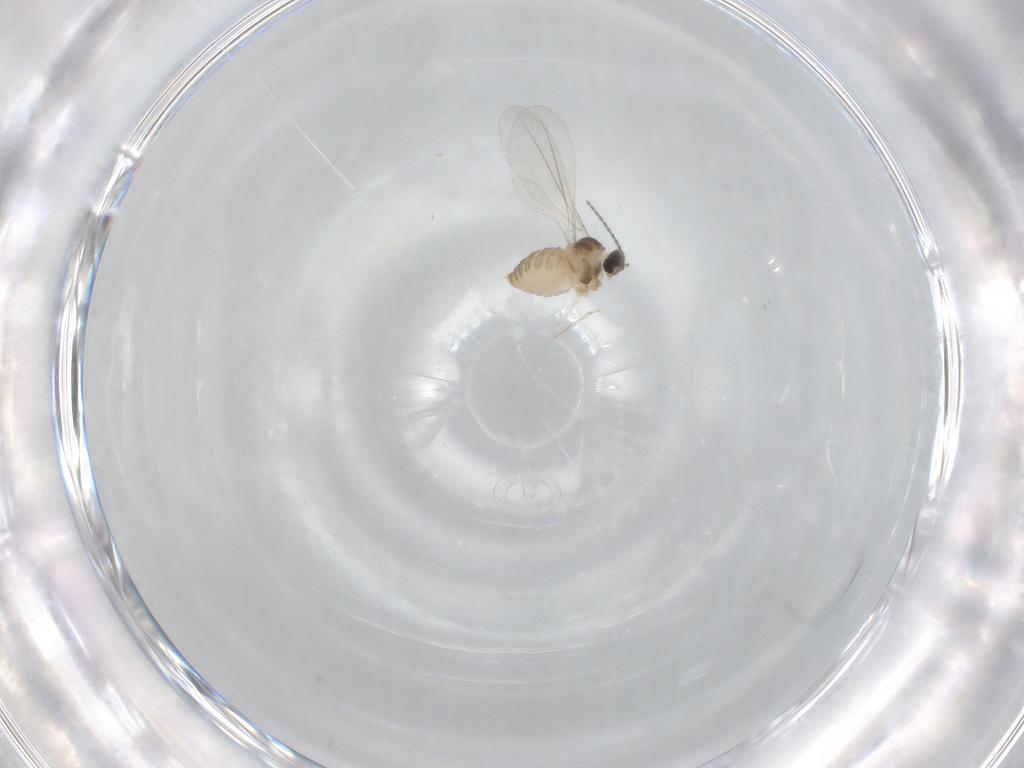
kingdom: Animalia
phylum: Arthropoda
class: Insecta
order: Diptera
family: Cecidomyiidae
